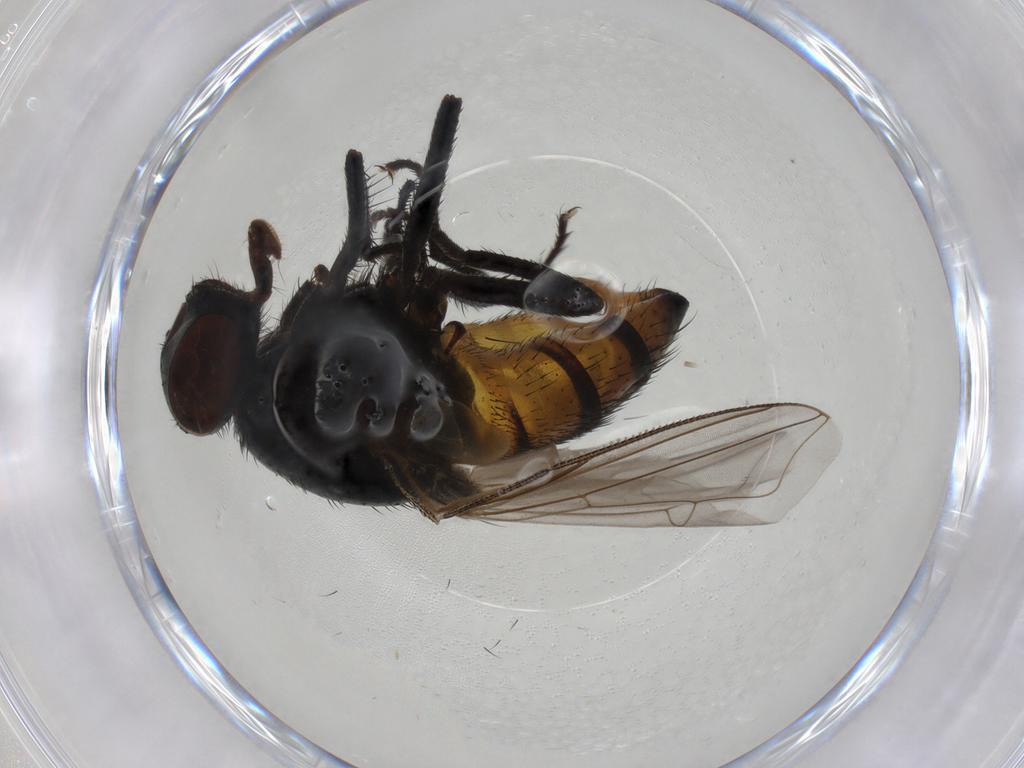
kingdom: Animalia
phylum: Arthropoda
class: Insecta
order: Diptera
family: Muscidae
